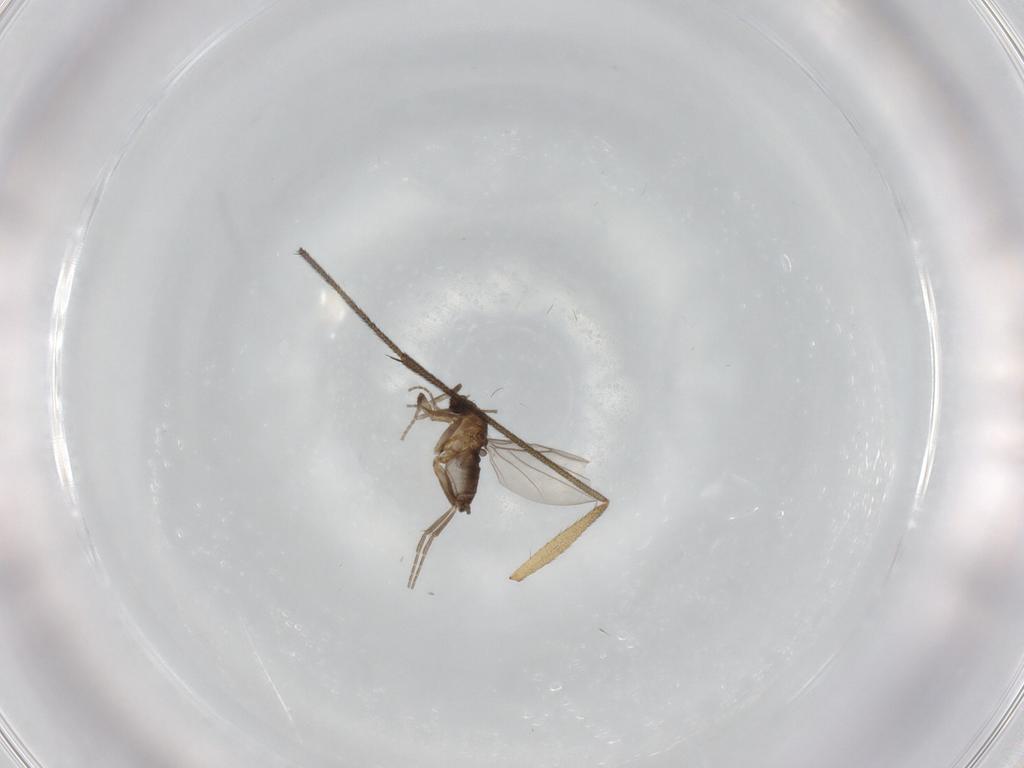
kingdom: Animalia
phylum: Arthropoda
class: Insecta
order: Diptera
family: Ditomyiidae
